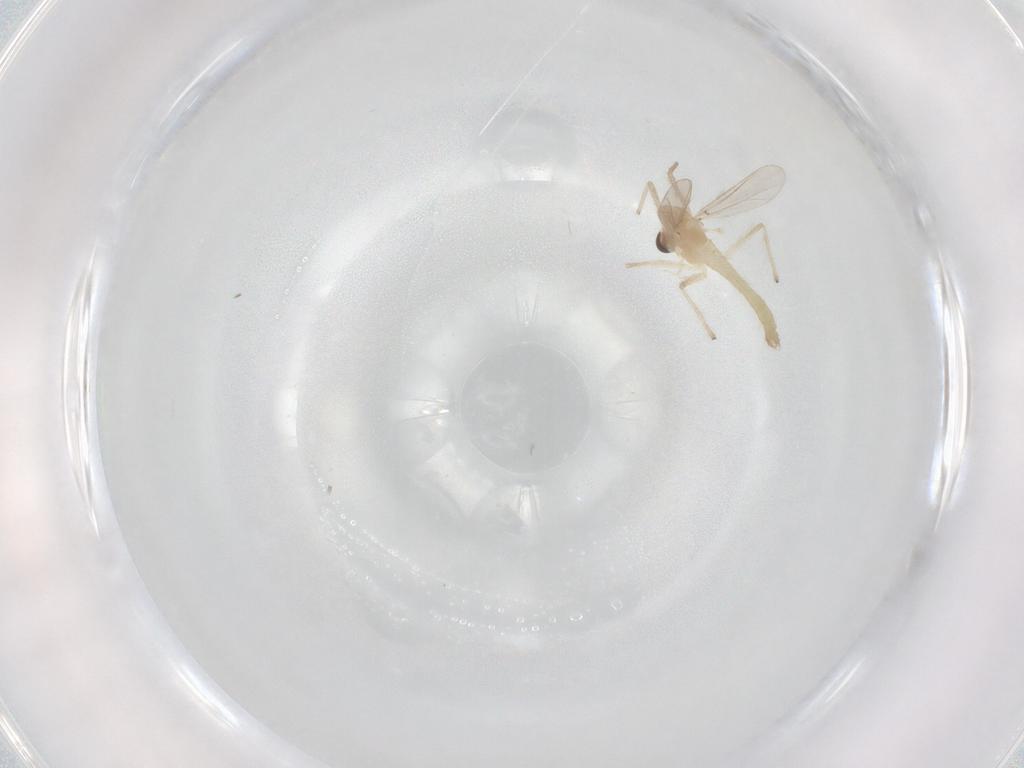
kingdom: Animalia
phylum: Arthropoda
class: Insecta
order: Diptera
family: Chironomidae
